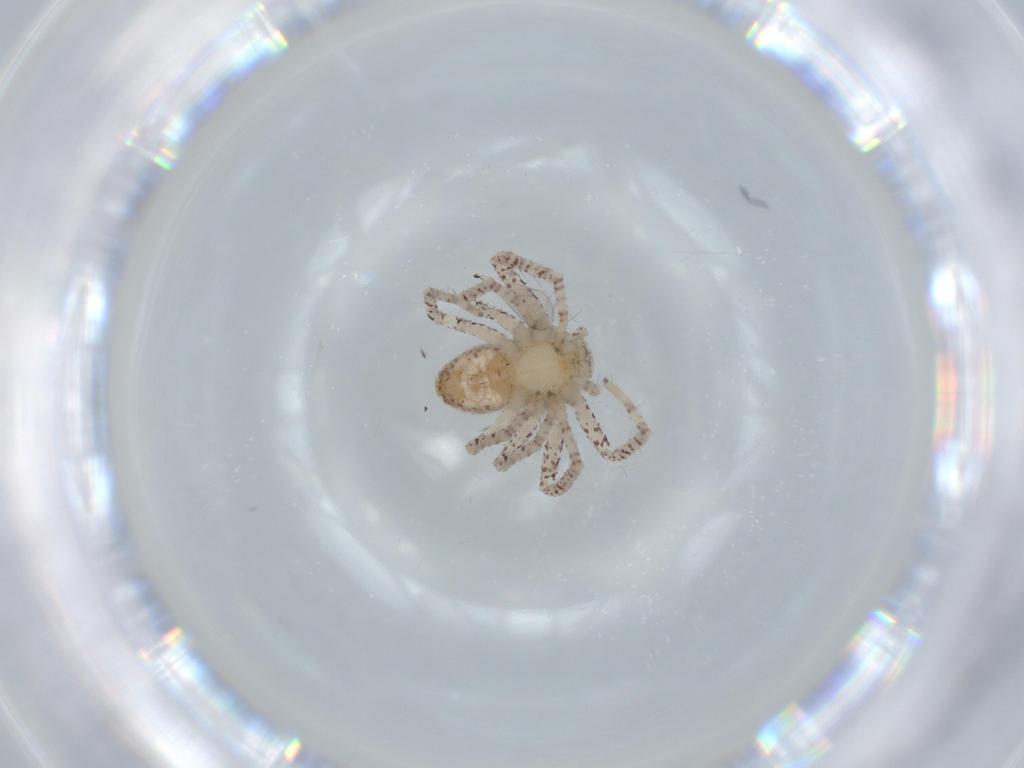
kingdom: Animalia
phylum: Arthropoda
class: Arachnida
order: Araneae
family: Philodromidae
